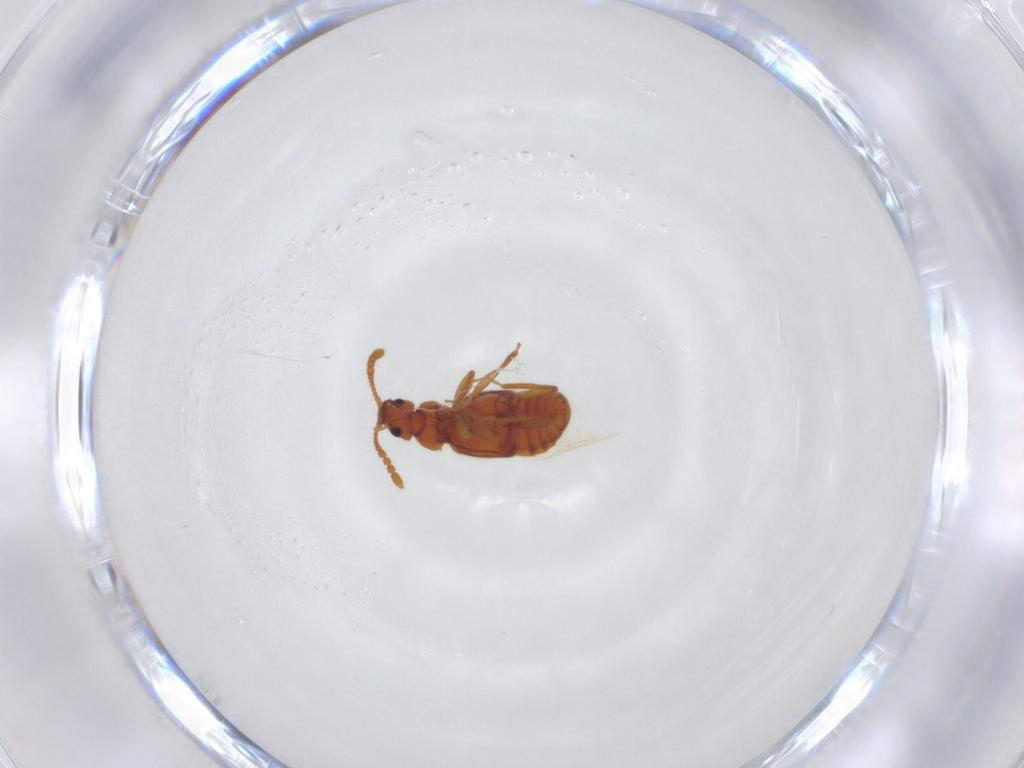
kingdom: Animalia
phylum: Arthropoda
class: Insecta
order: Coleoptera
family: Staphylinidae
